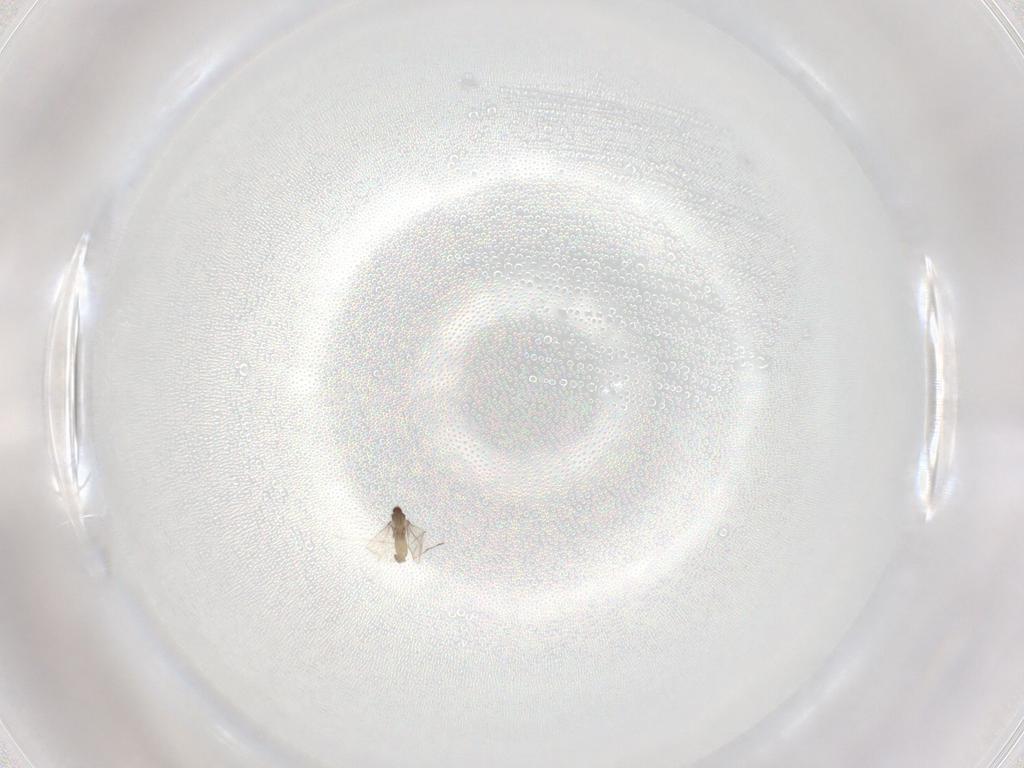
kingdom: Animalia
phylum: Arthropoda
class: Insecta
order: Diptera
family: Cecidomyiidae
